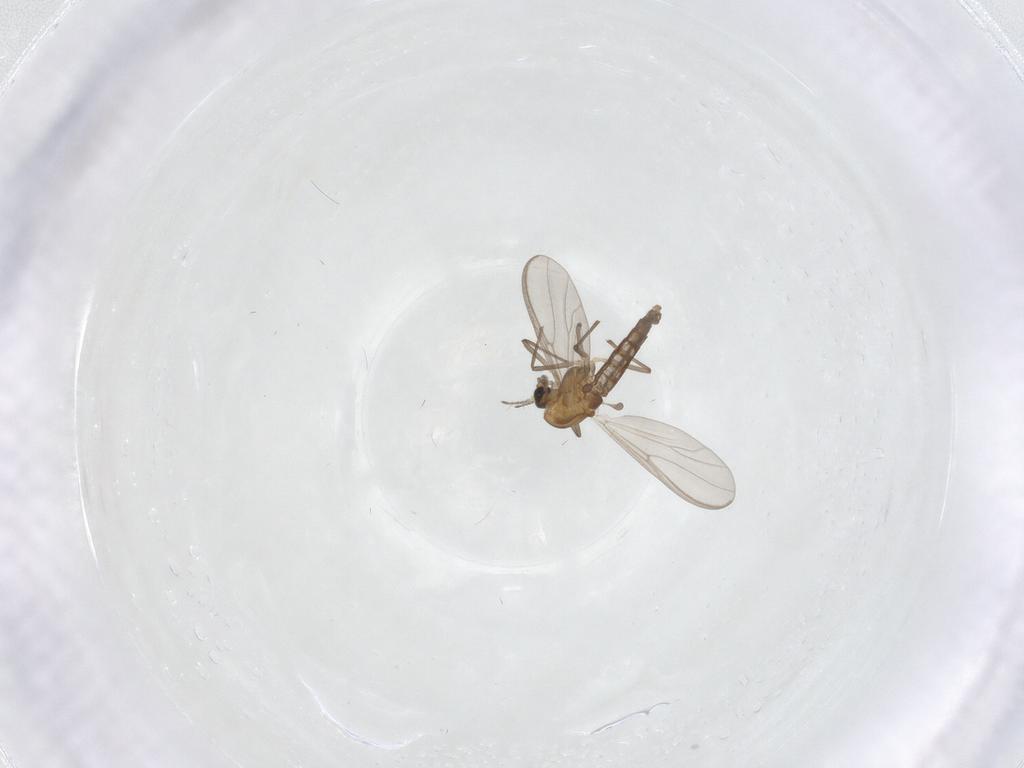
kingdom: Animalia
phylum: Arthropoda
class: Insecta
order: Diptera
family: Chironomidae
